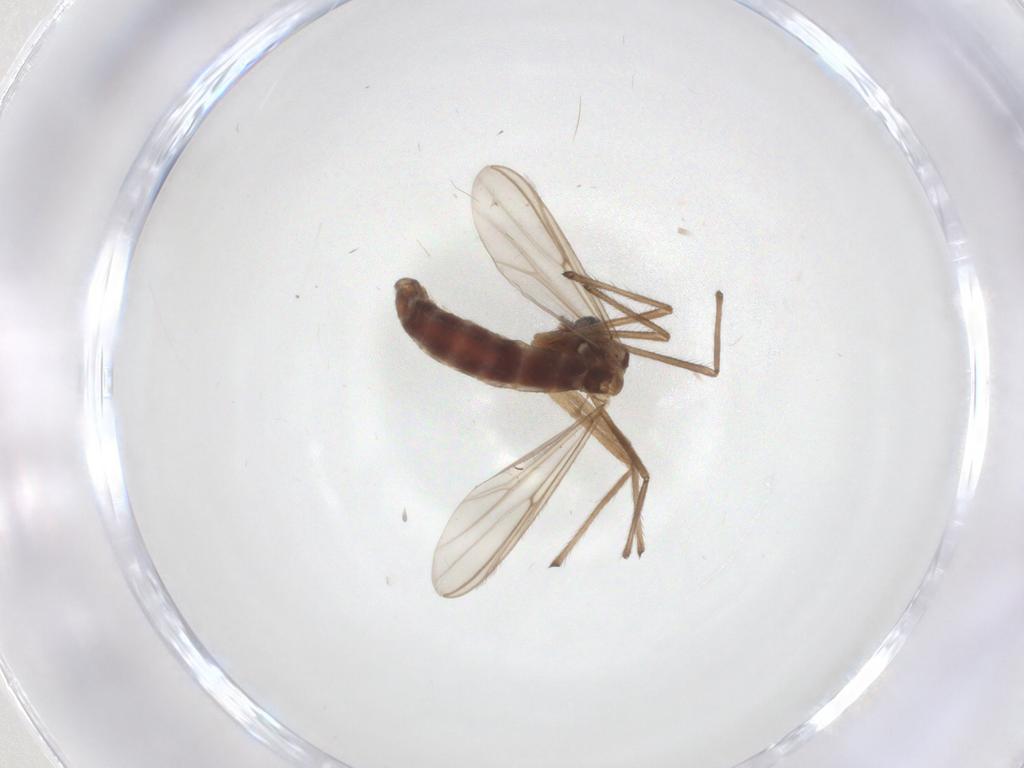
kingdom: Animalia
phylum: Arthropoda
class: Insecta
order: Diptera
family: Chironomidae
